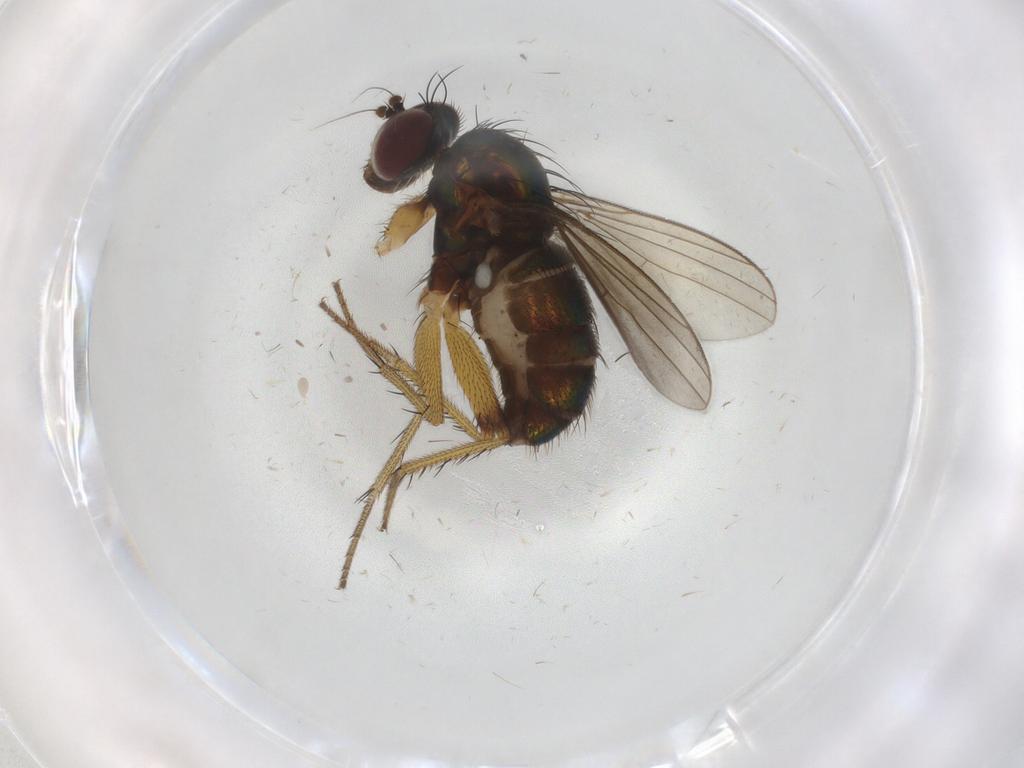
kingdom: Animalia
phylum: Arthropoda
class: Insecta
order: Diptera
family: Dolichopodidae
